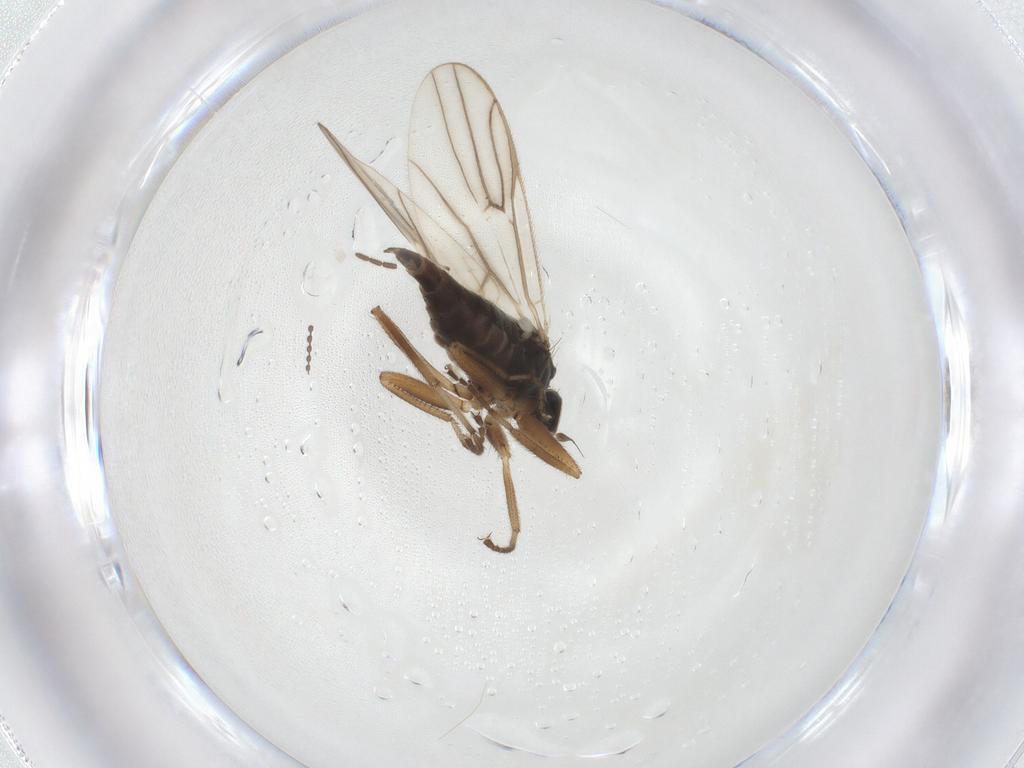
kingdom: Animalia
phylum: Arthropoda
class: Insecta
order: Diptera
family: Hybotidae
